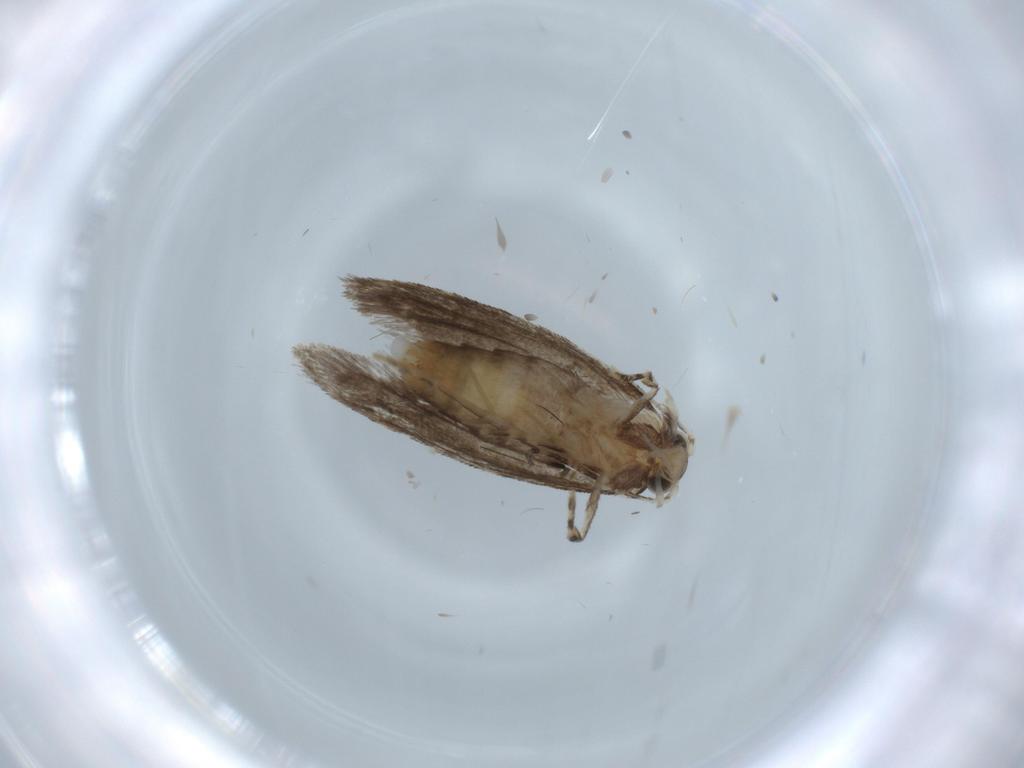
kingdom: Animalia
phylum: Arthropoda
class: Insecta
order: Lepidoptera
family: Tineidae
